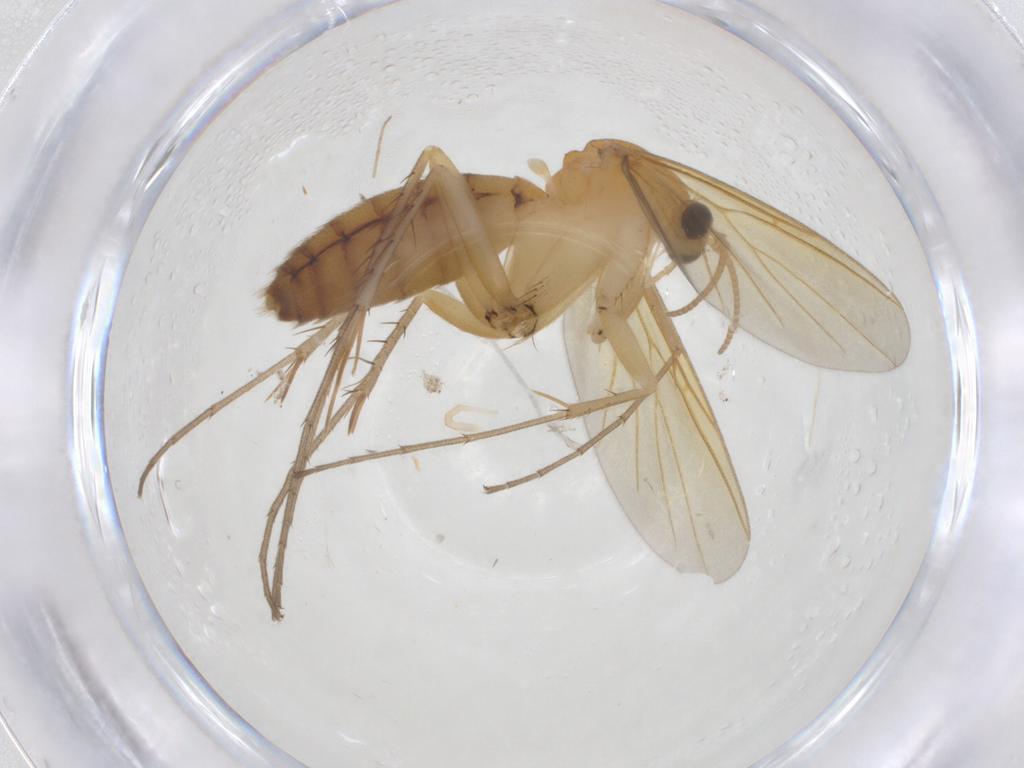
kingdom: Animalia
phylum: Arthropoda
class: Insecta
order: Diptera
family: Mycetophilidae
